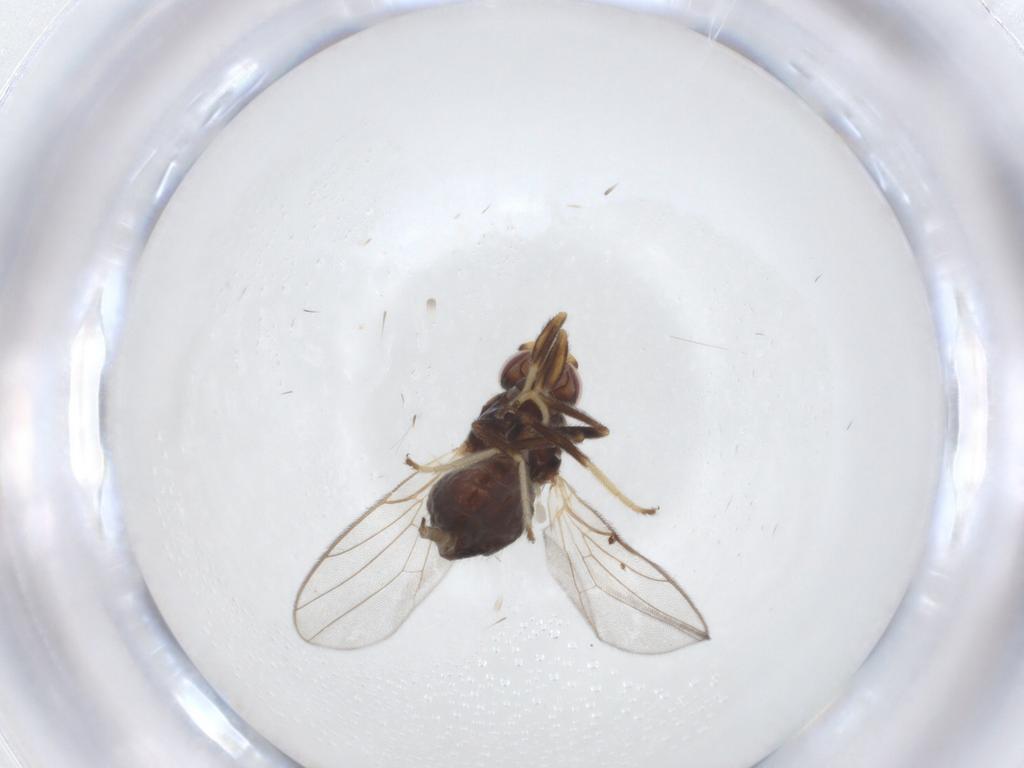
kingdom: Animalia
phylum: Arthropoda
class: Insecta
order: Diptera
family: Chloropidae
